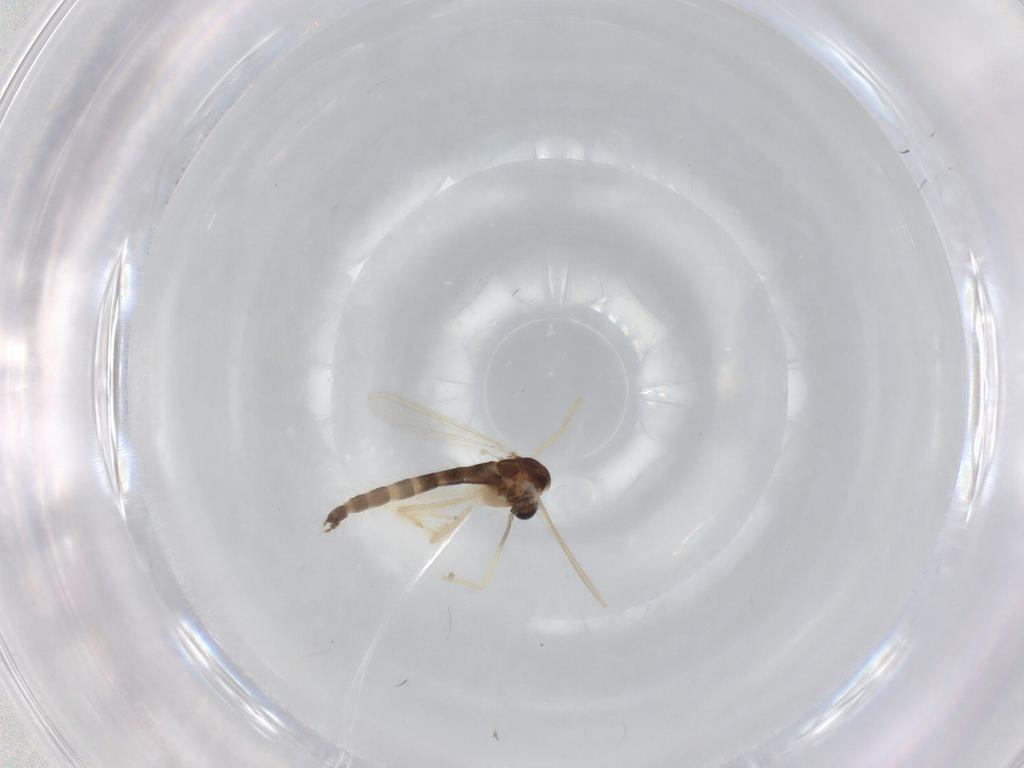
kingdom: Animalia
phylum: Arthropoda
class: Insecta
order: Diptera
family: Chironomidae
